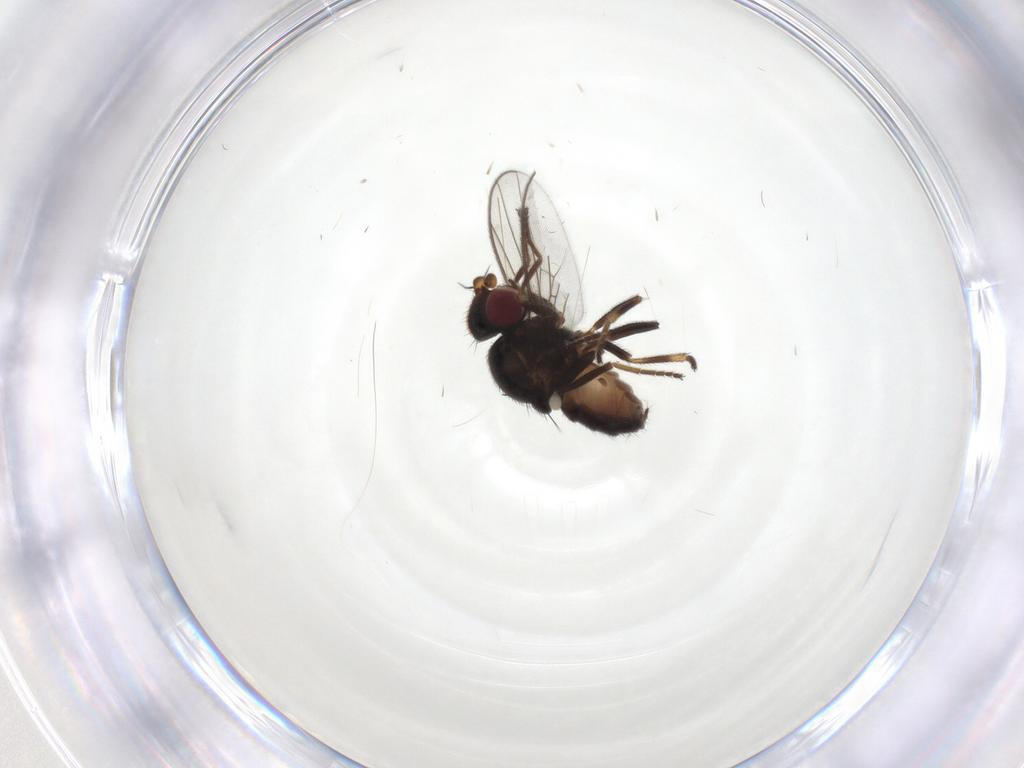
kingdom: Animalia
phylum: Arthropoda
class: Insecta
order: Diptera
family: Chloropidae
